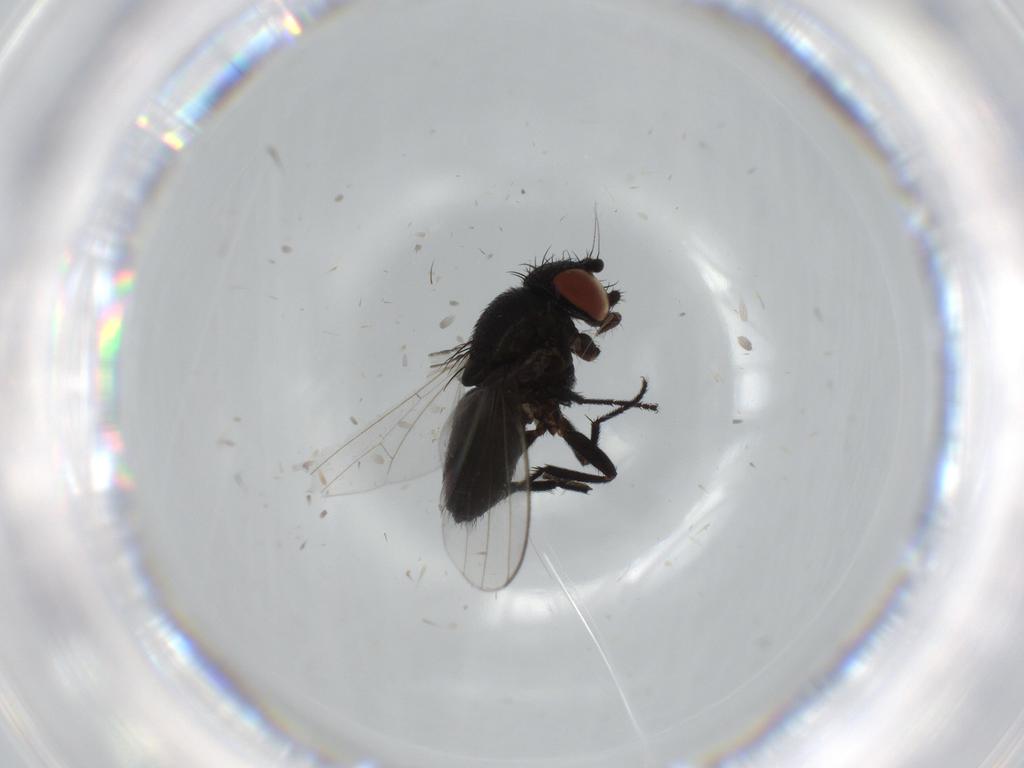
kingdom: Animalia
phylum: Arthropoda
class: Insecta
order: Diptera
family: Milichiidae
